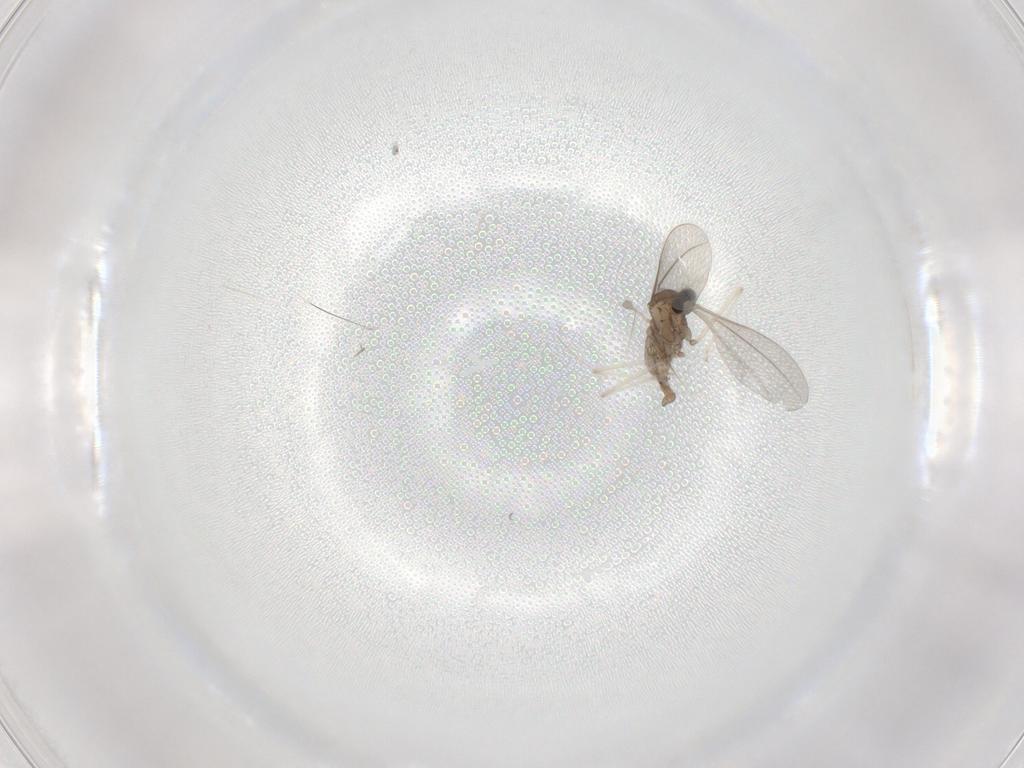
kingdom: Animalia
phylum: Arthropoda
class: Insecta
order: Diptera
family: Cecidomyiidae
